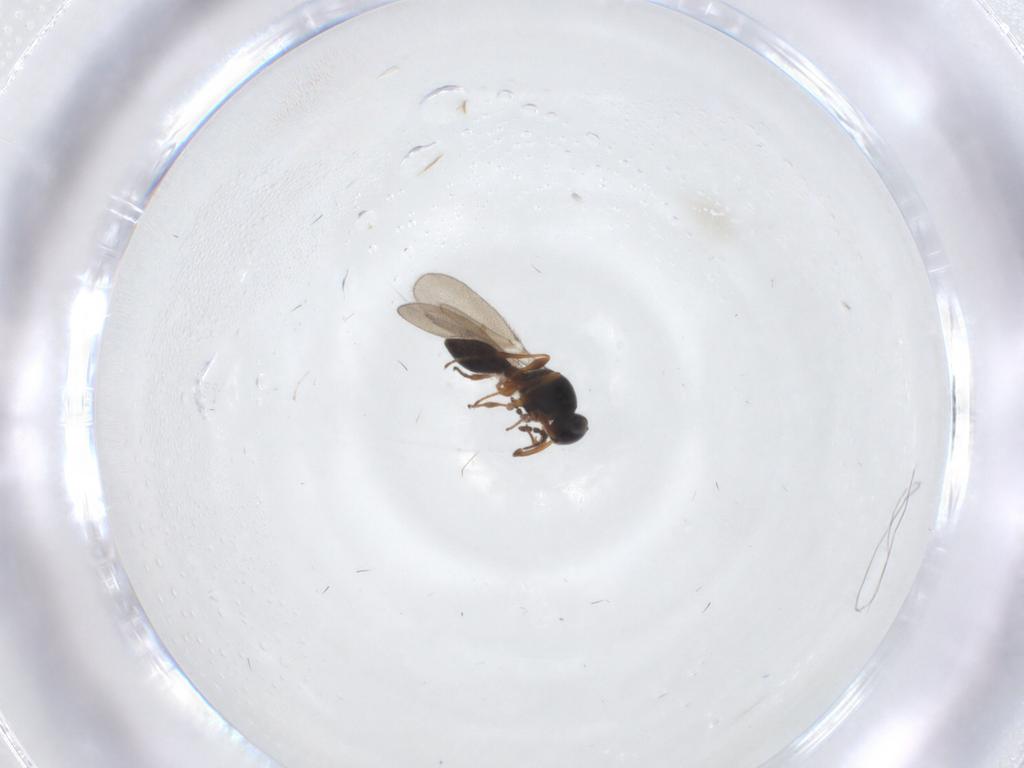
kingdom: Animalia
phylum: Arthropoda
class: Insecta
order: Hymenoptera
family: Platygastridae
